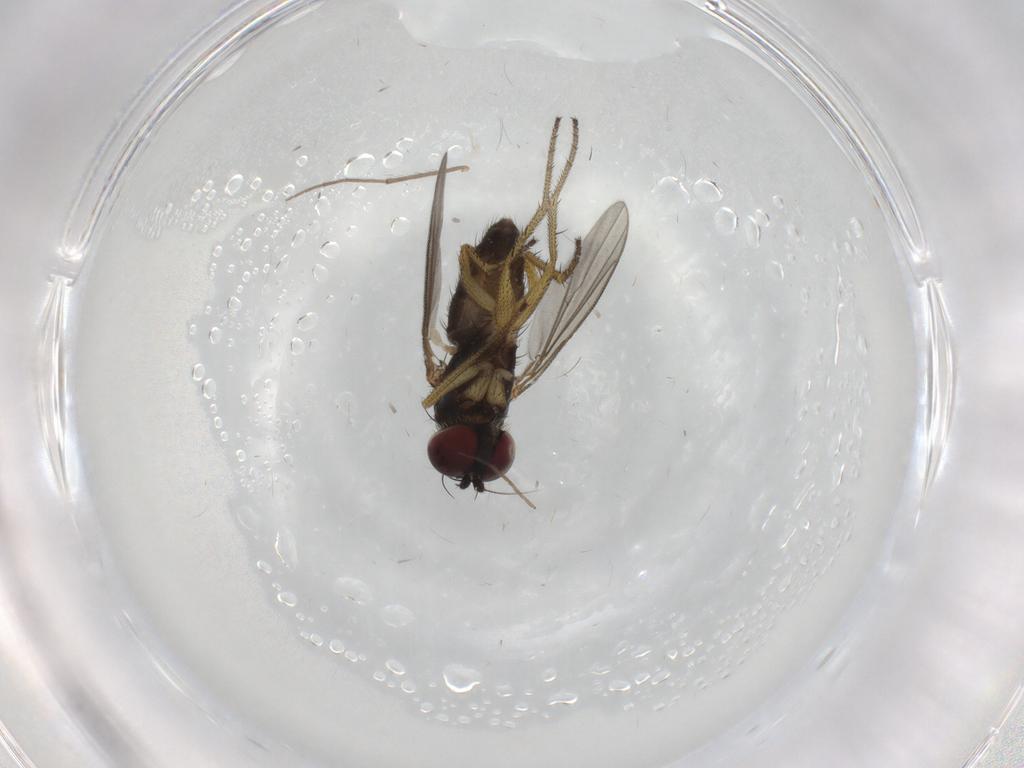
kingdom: Animalia
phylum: Arthropoda
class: Insecta
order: Diptera
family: Dolichopodidae
